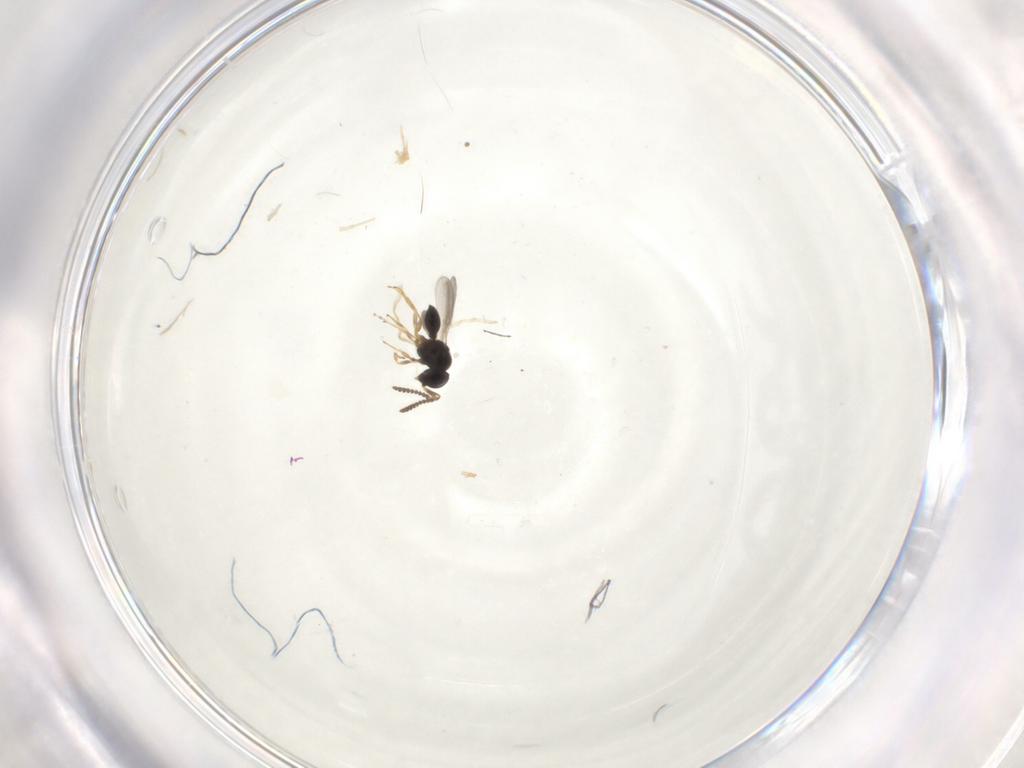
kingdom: Animalia
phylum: Arthropoda
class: Insecta
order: Hymenoptera
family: Scelionidae
